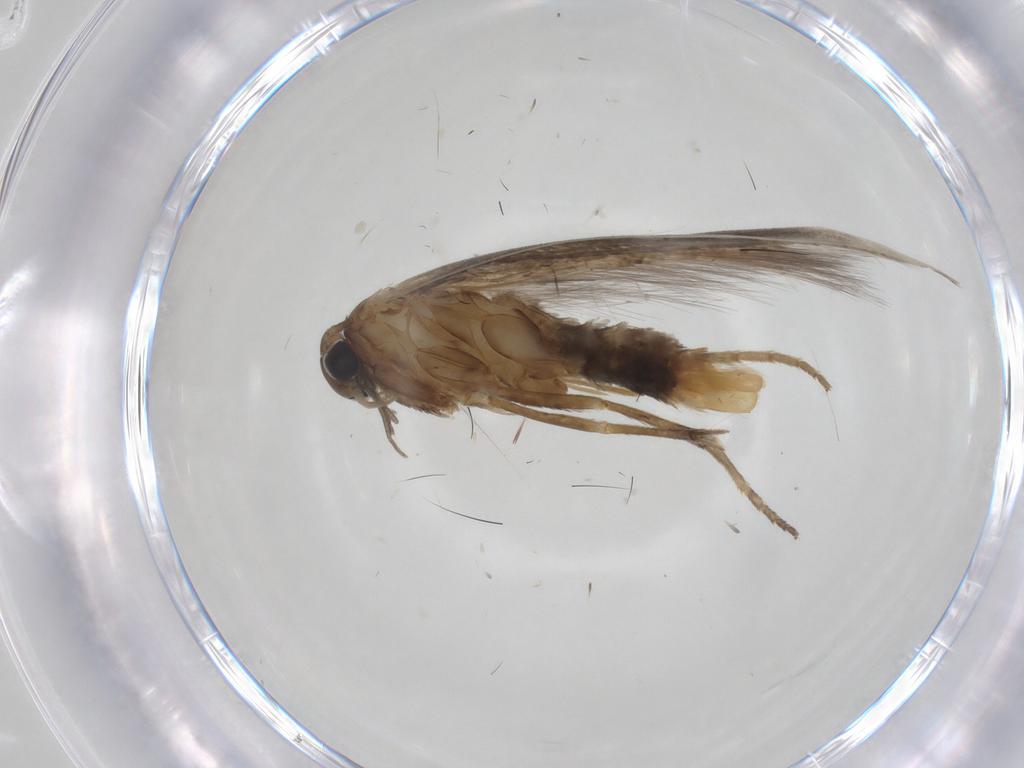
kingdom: Animalia
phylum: Arthropoda
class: Insecta
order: Lepidoptera
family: Elachistidae
